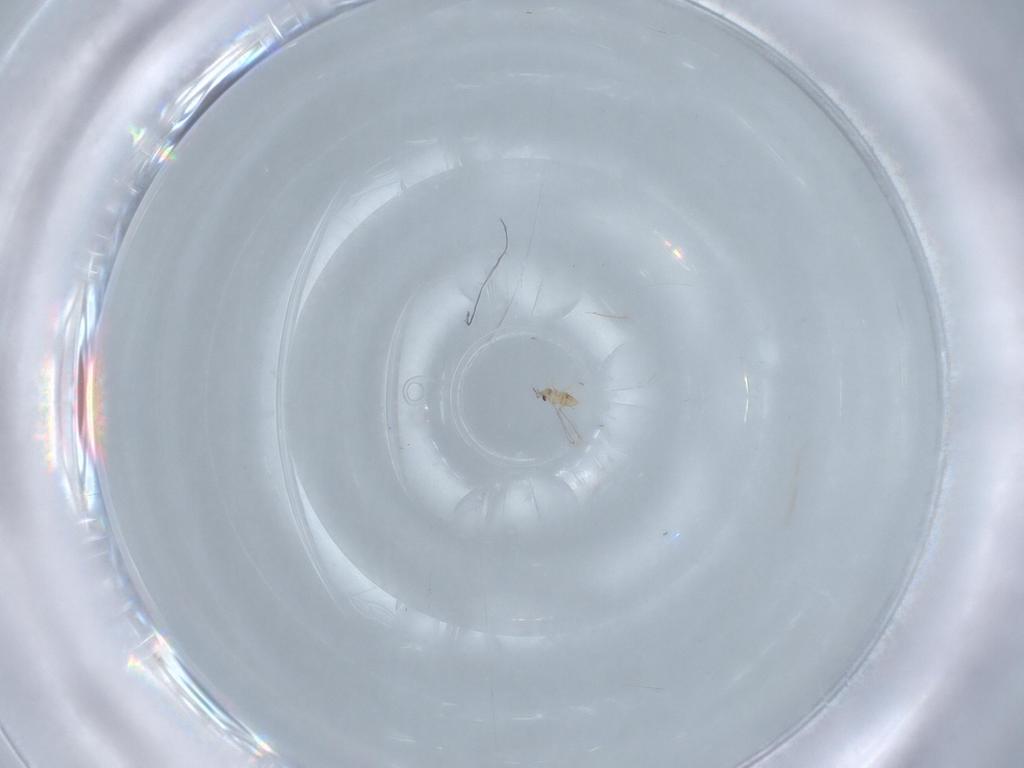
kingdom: Animalia
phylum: Arthropoda
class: Insecta
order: Hymenoptera
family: Mymaridae
